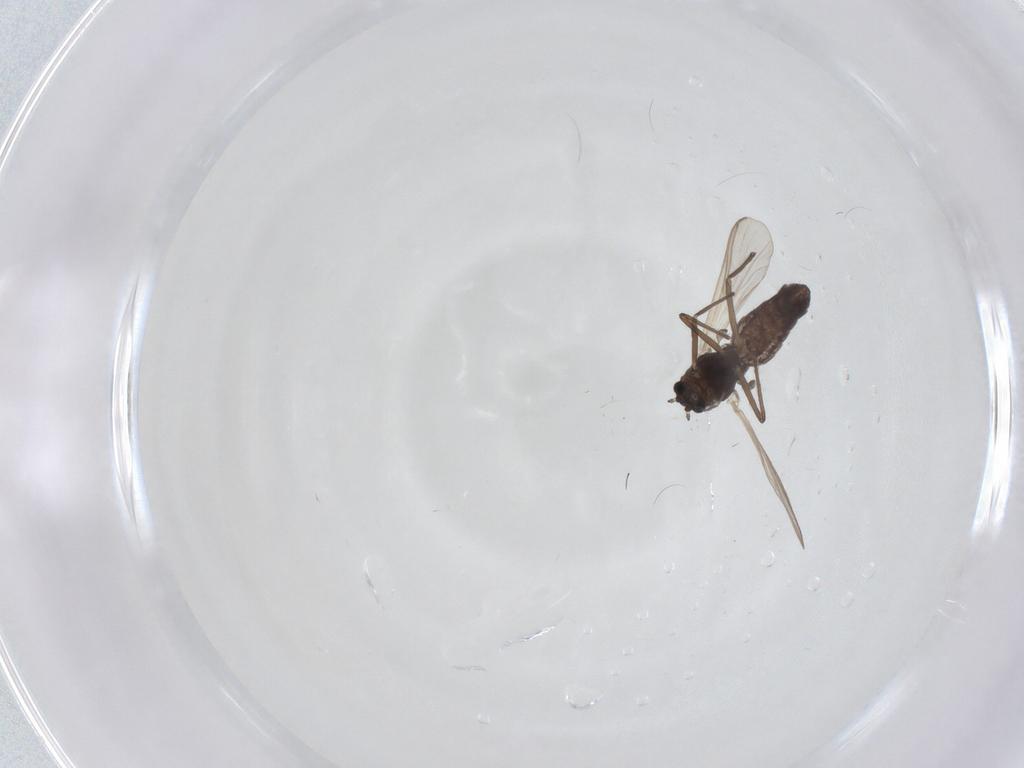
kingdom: Animalia
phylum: Arthropoda
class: Insecta
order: Diptera
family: Chironomidae
